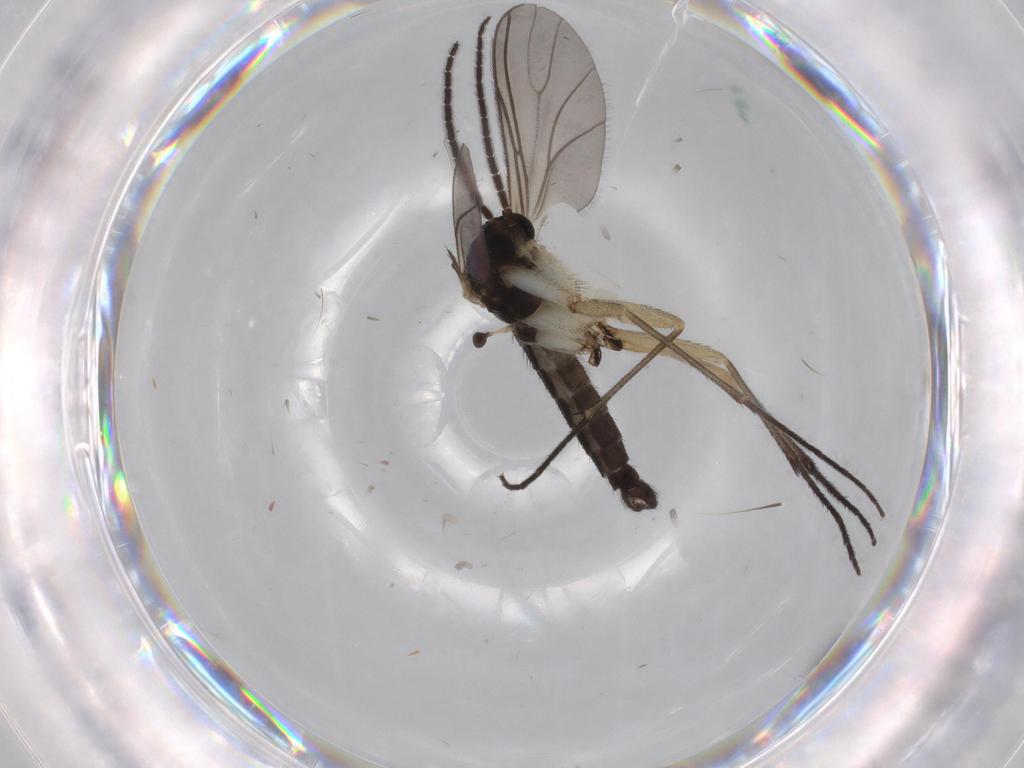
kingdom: Animalia
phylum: Arthropoda
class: Insecta
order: Diptera
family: Sciaridae
